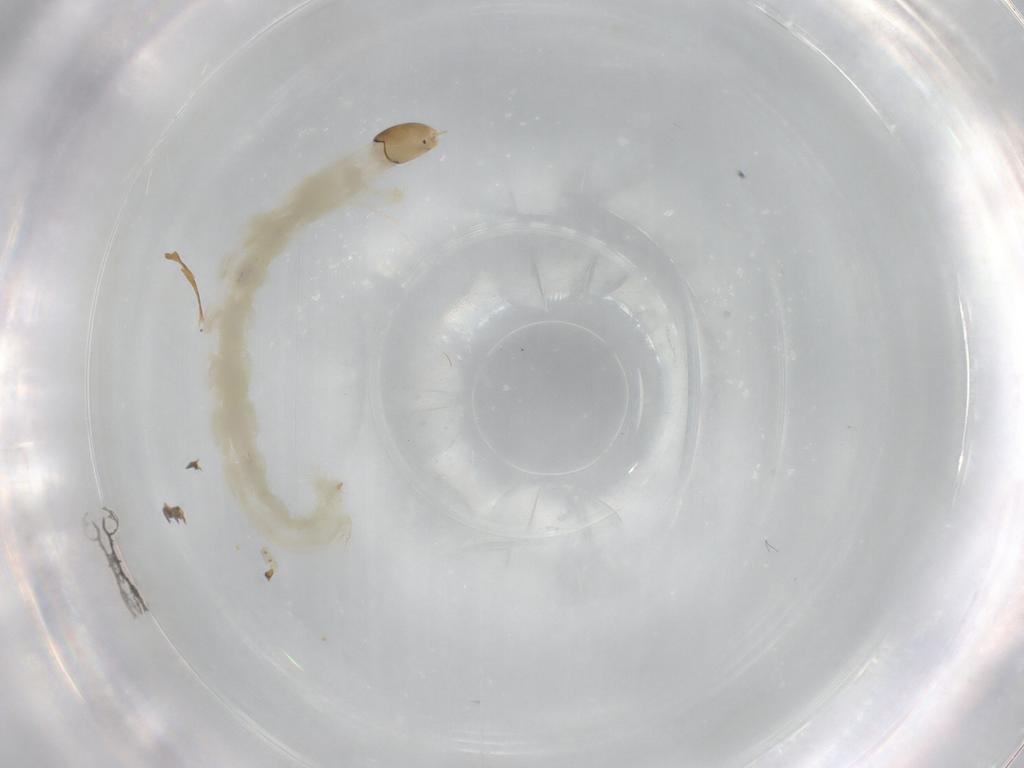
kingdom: Animalia
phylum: Arthropoda
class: Insecta
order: Diptera
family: Chironomidae
